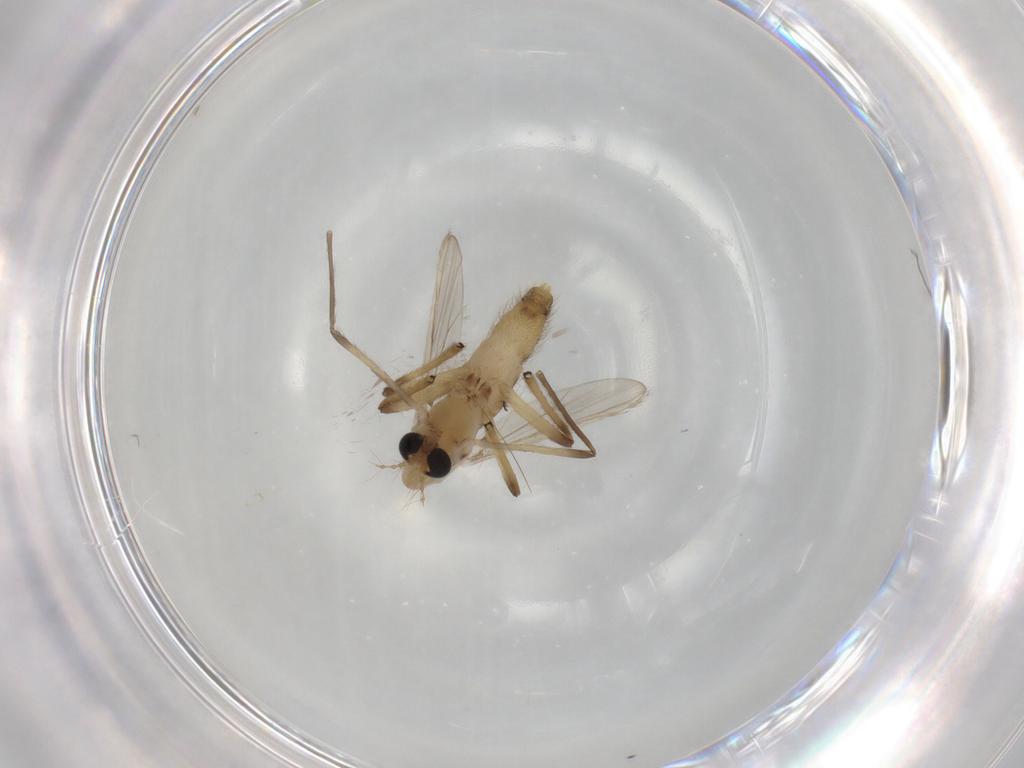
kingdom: Animalia
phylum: Arthropoda
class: Insecta
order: Diptera
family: Chironomidae
